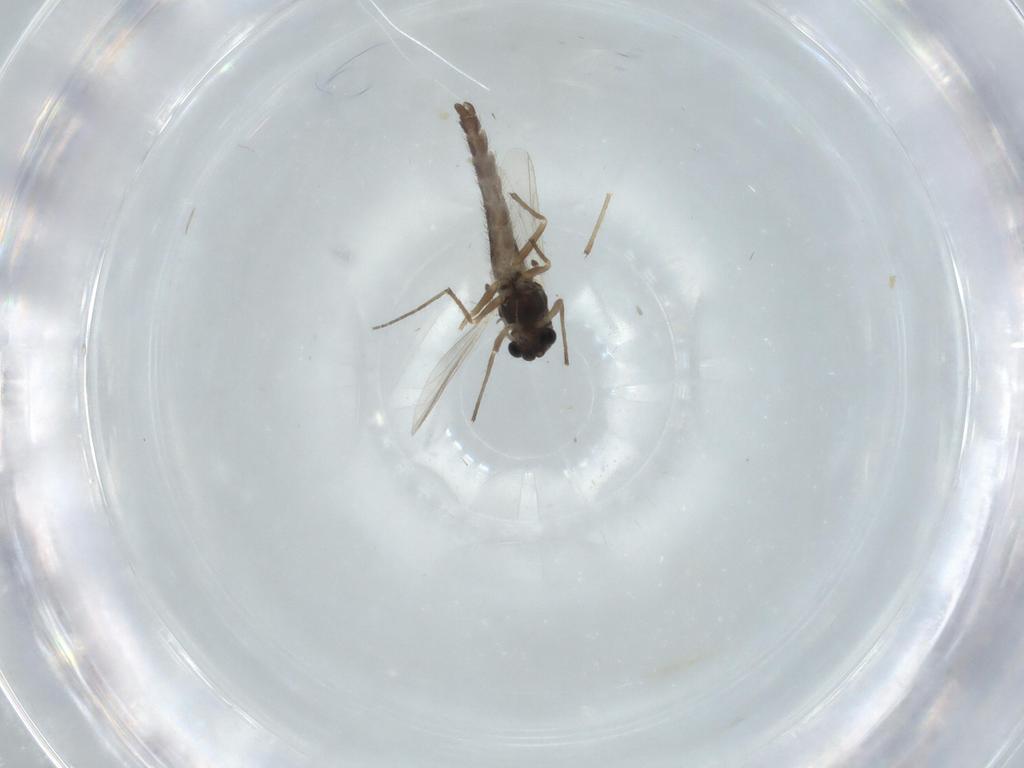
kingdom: Animalia
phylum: Arthropoda
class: Insecta
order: Diptera
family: Chironomidae
